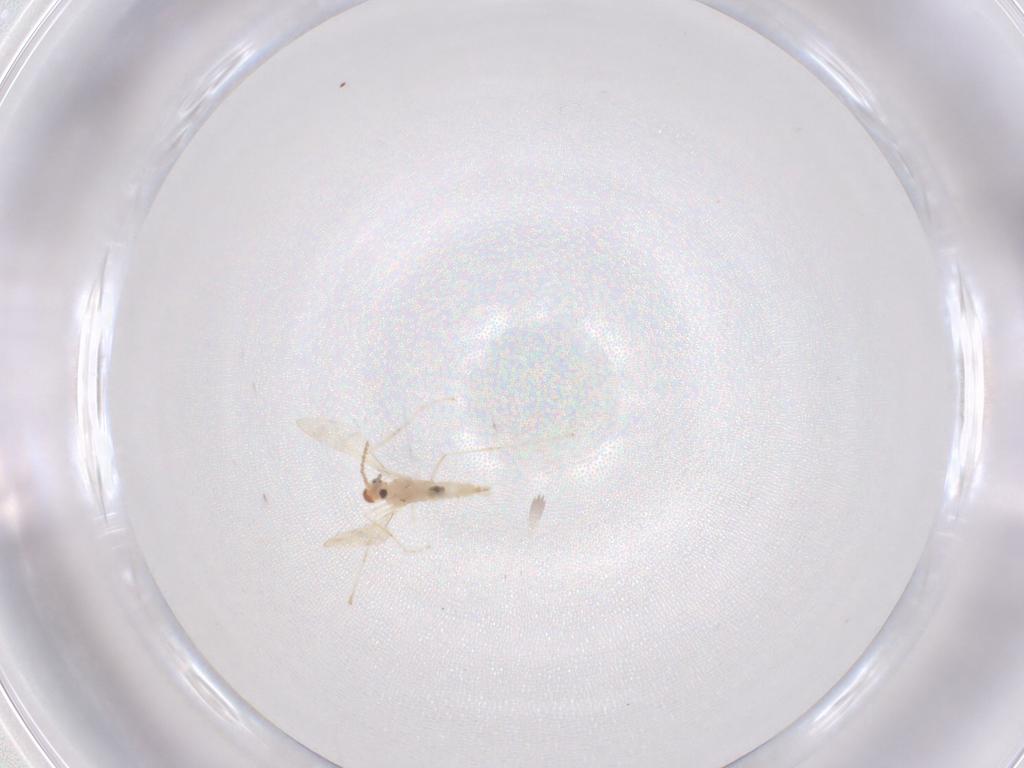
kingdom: Animalia
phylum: Arthropoda
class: Insecta
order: Diptera
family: Cecidomyiidae
